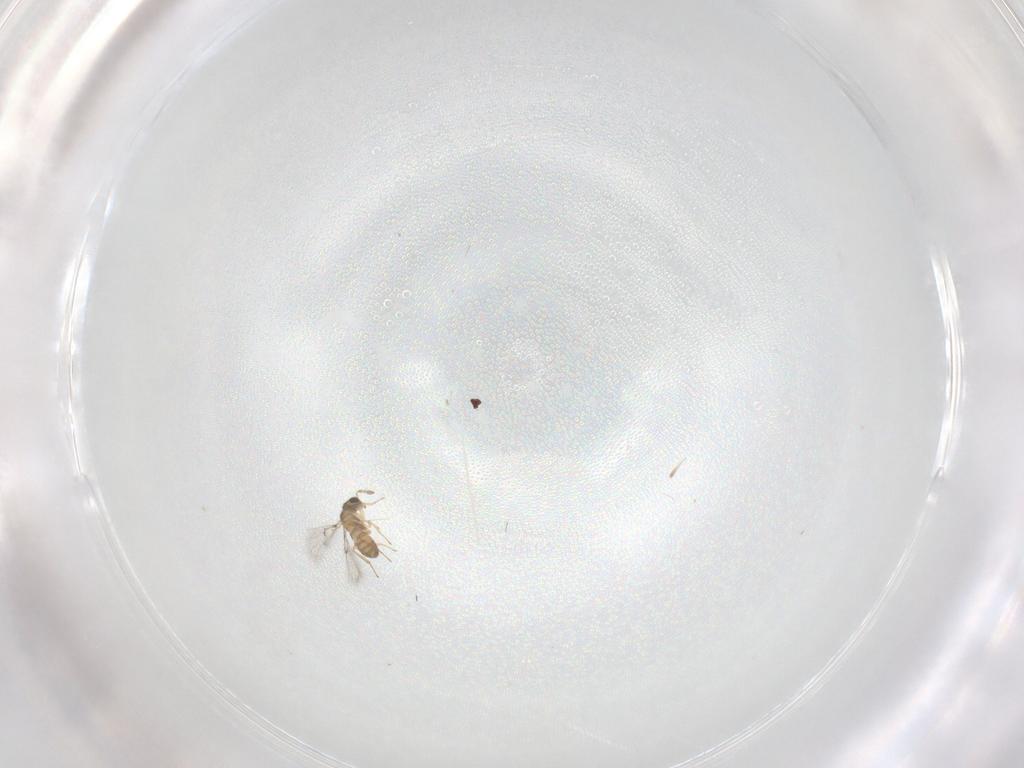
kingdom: Animalia
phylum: Arthropoda
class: Insecta
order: Hymenoptera
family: Trichogrammatidae
